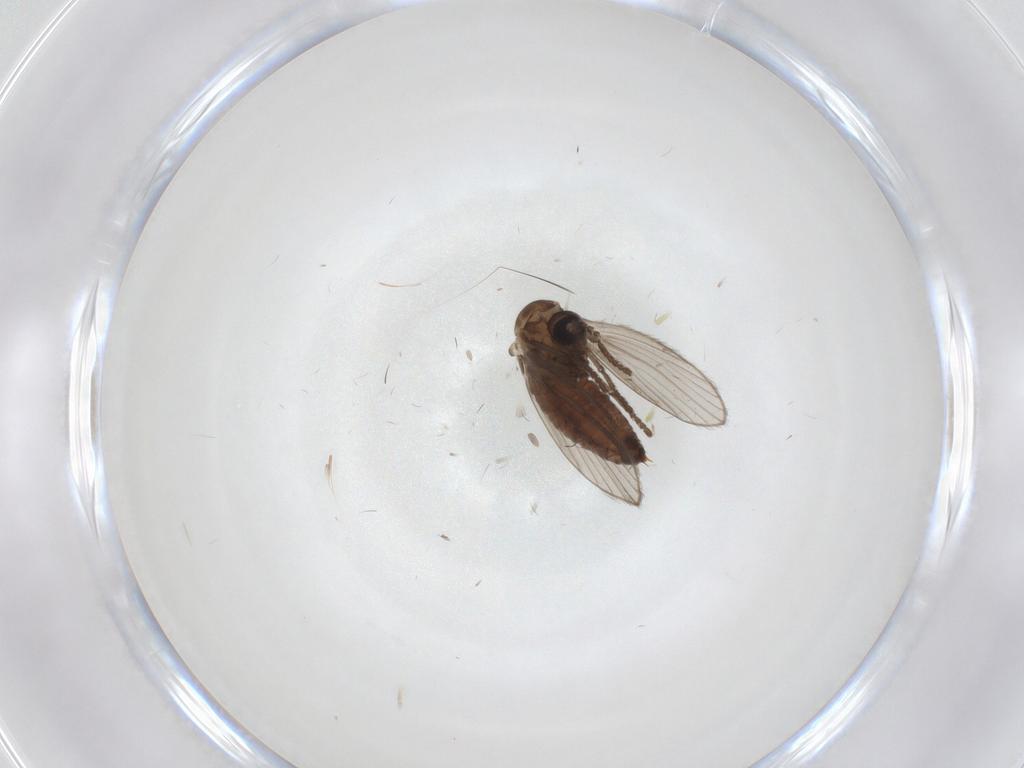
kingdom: Animalia
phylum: Arthropoda
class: Insecta
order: Diptera
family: Psychodidae
